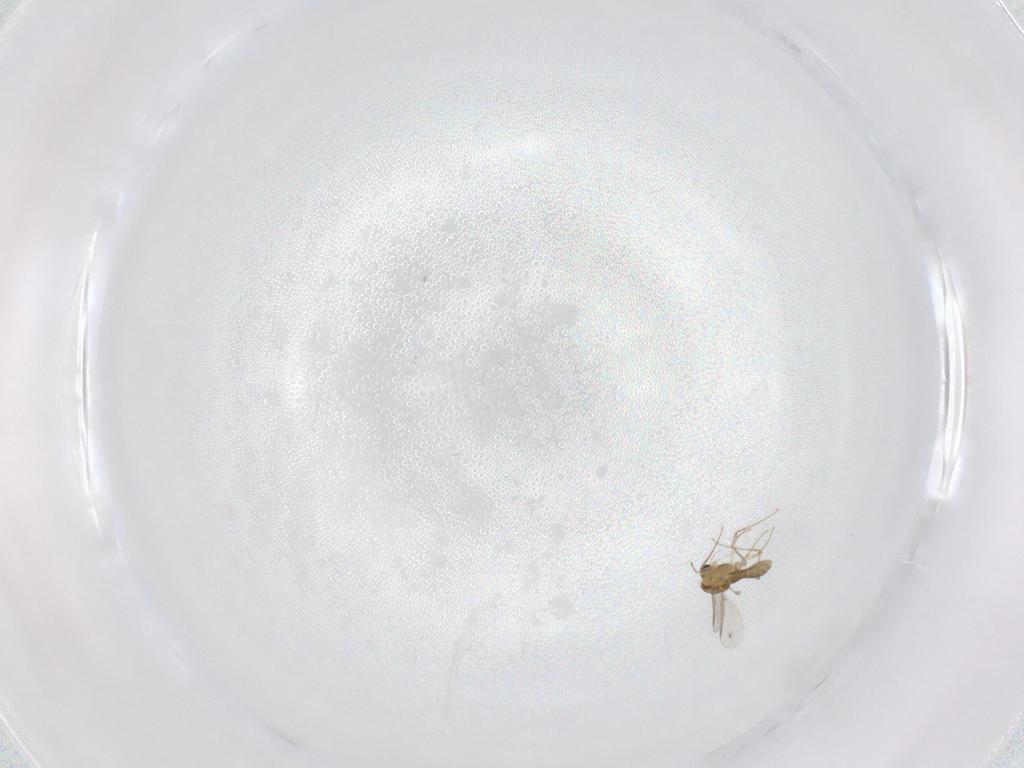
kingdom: Animalia
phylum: Arthropoda
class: Insecta
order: Diptera
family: Chironomidae
